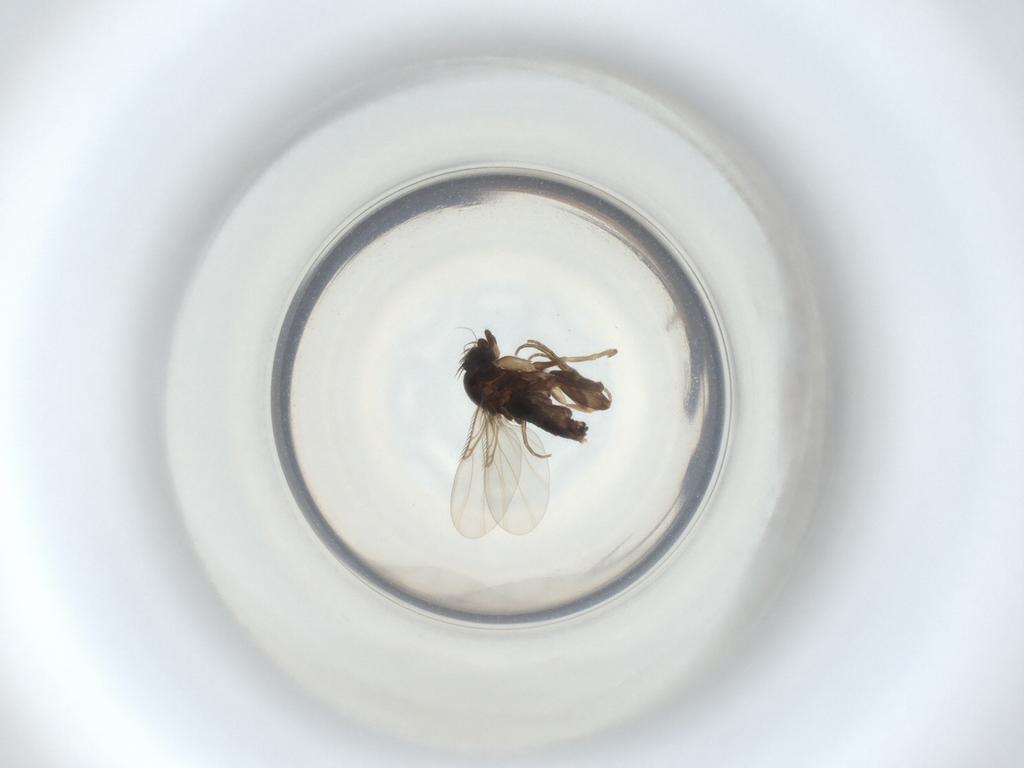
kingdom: Animalia
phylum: Arthropoda
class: Insecta
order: Diptera
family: Phoridae
